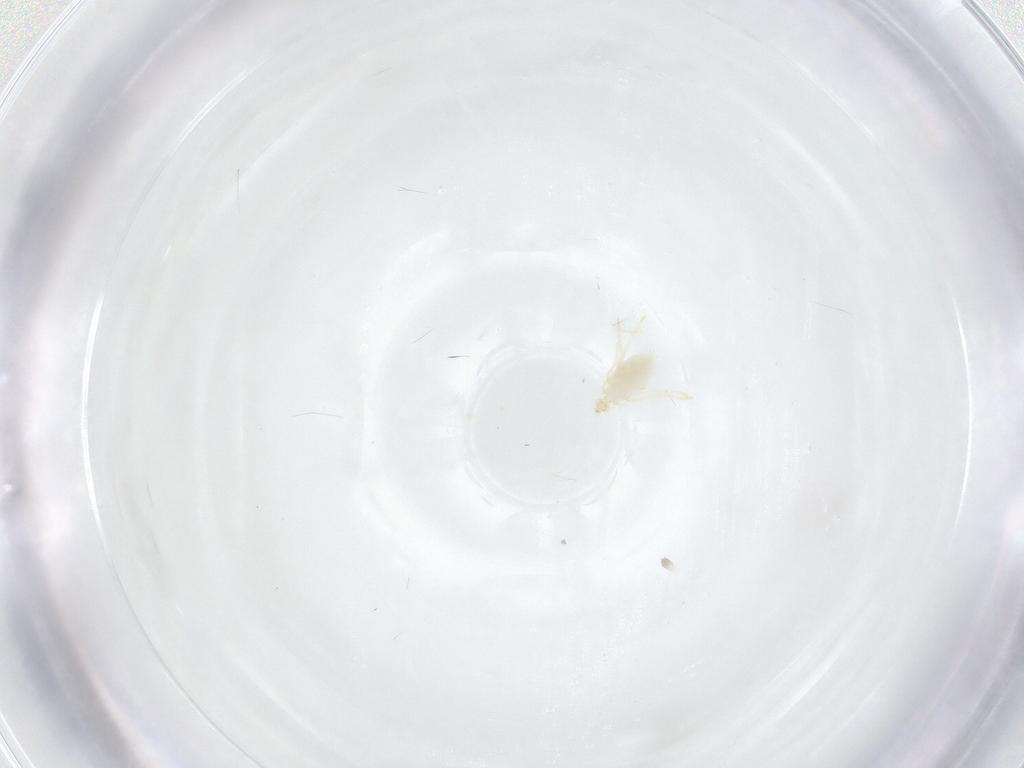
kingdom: Animalia
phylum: Arthropoda
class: Arachnida
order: Trombidiformes
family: Erythraeidae
